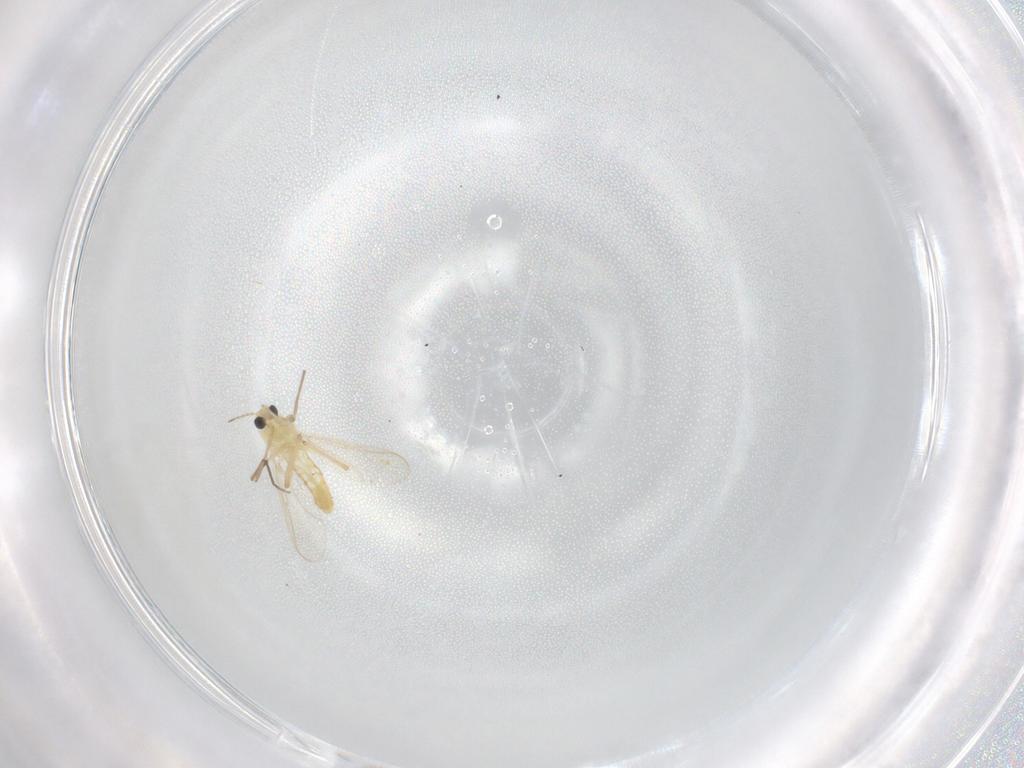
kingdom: Animalia
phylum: Arthropoda
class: Insecta
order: Diptera
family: Chironomidae
